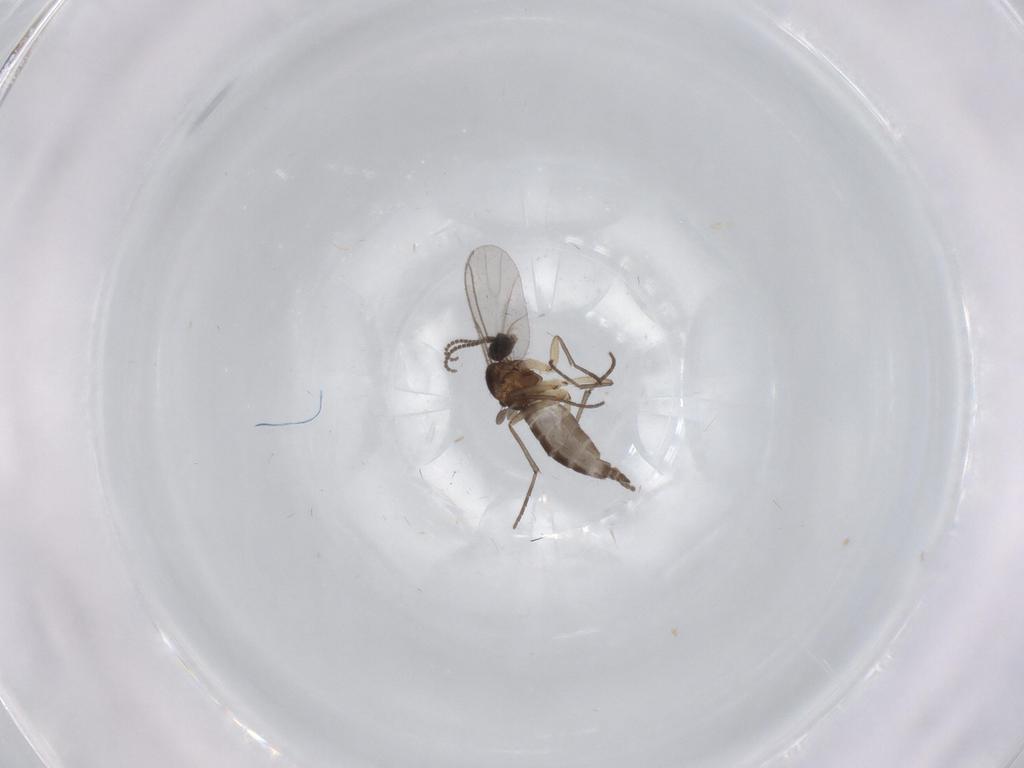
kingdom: Animalia
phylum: Arthropoda
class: Insecta
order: Diptera
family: Sciaridae
